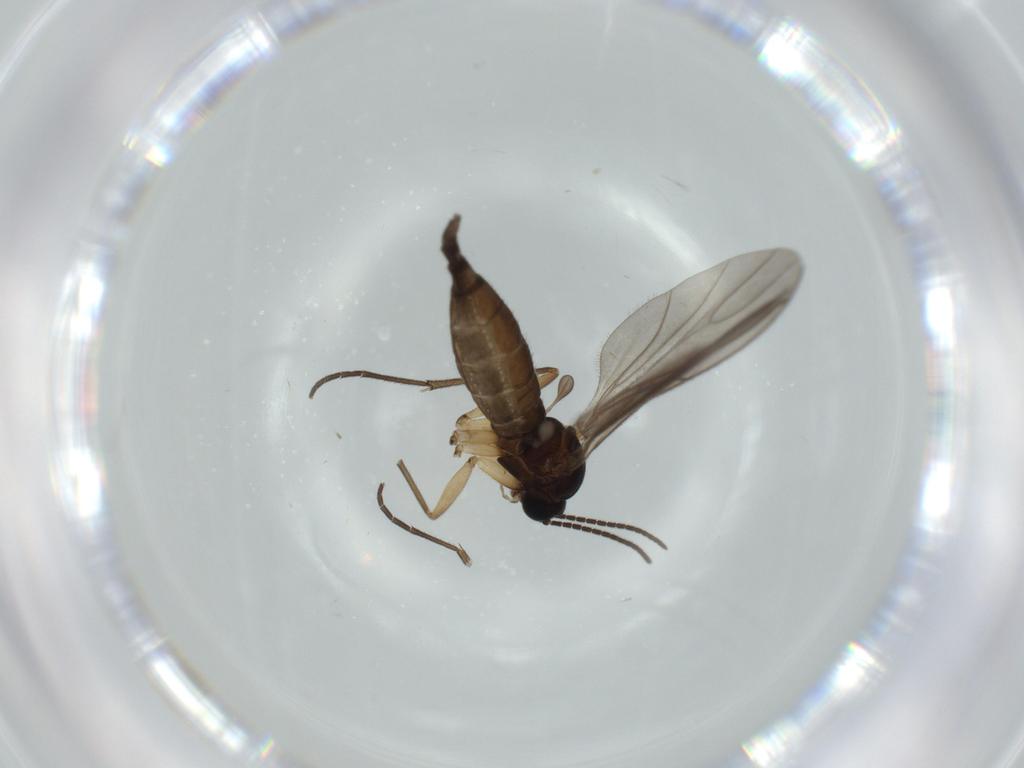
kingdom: Animalia
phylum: Arthropoda
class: Insecta
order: Diptera
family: Sciaridae
